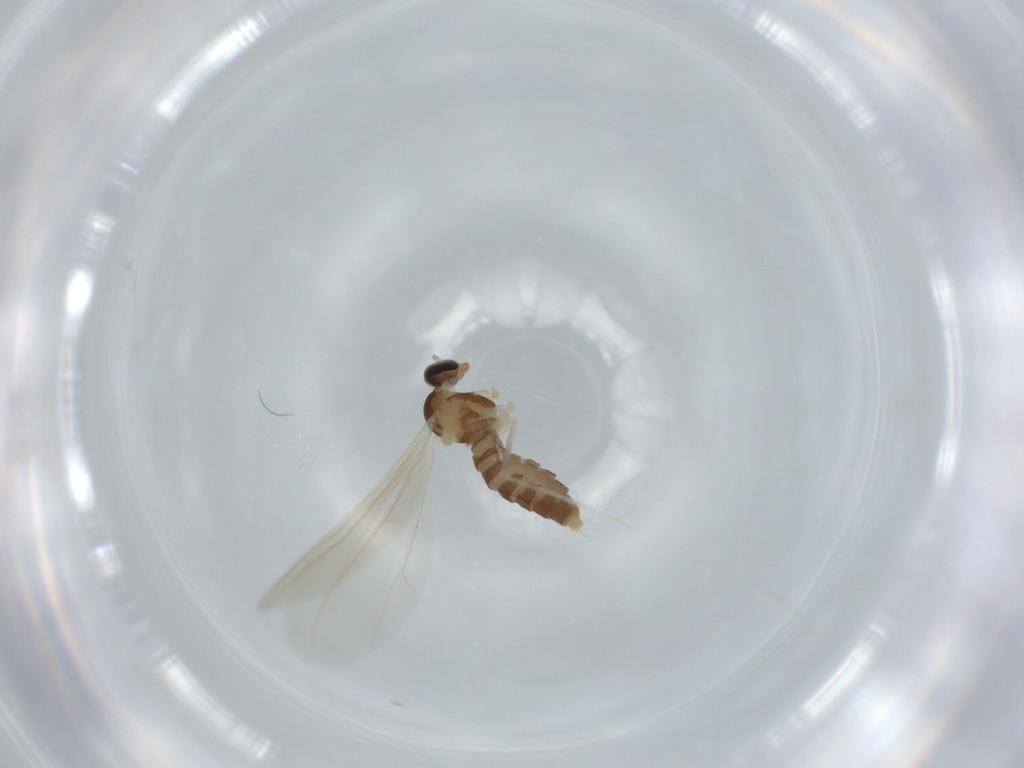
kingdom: Animalia
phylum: Arthropoda
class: Insecta
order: Diptera
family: Cecidomyiidae
